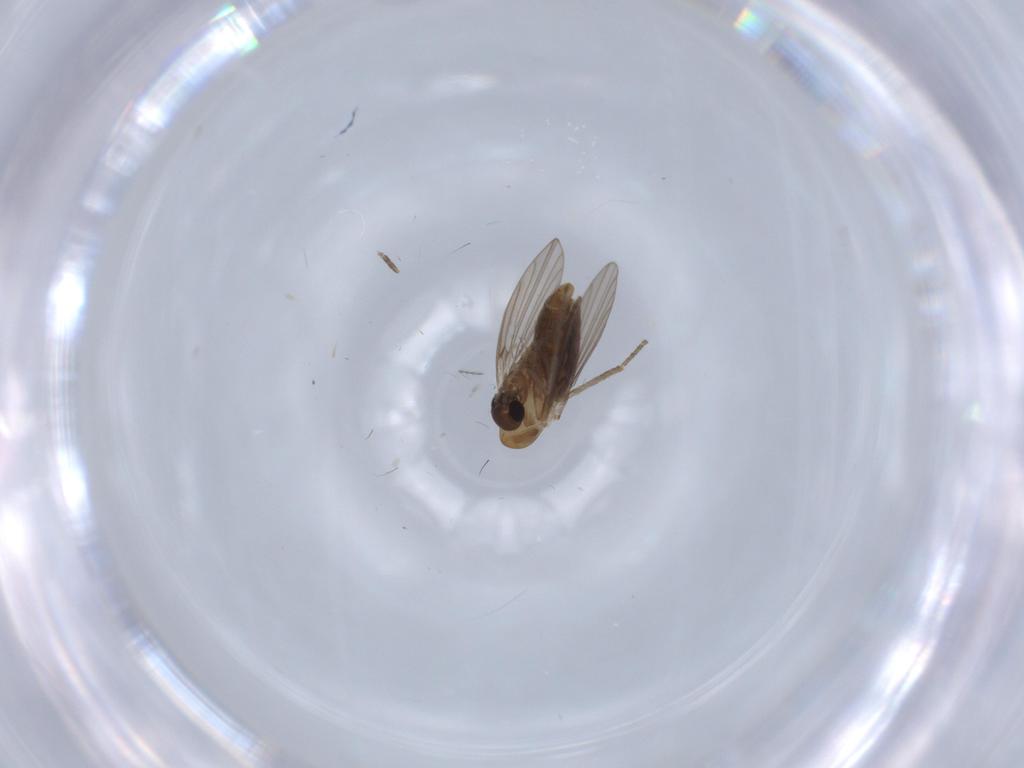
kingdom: Animalia
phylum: Arthropoda
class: Insecta
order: Diptera
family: Psychodidae
